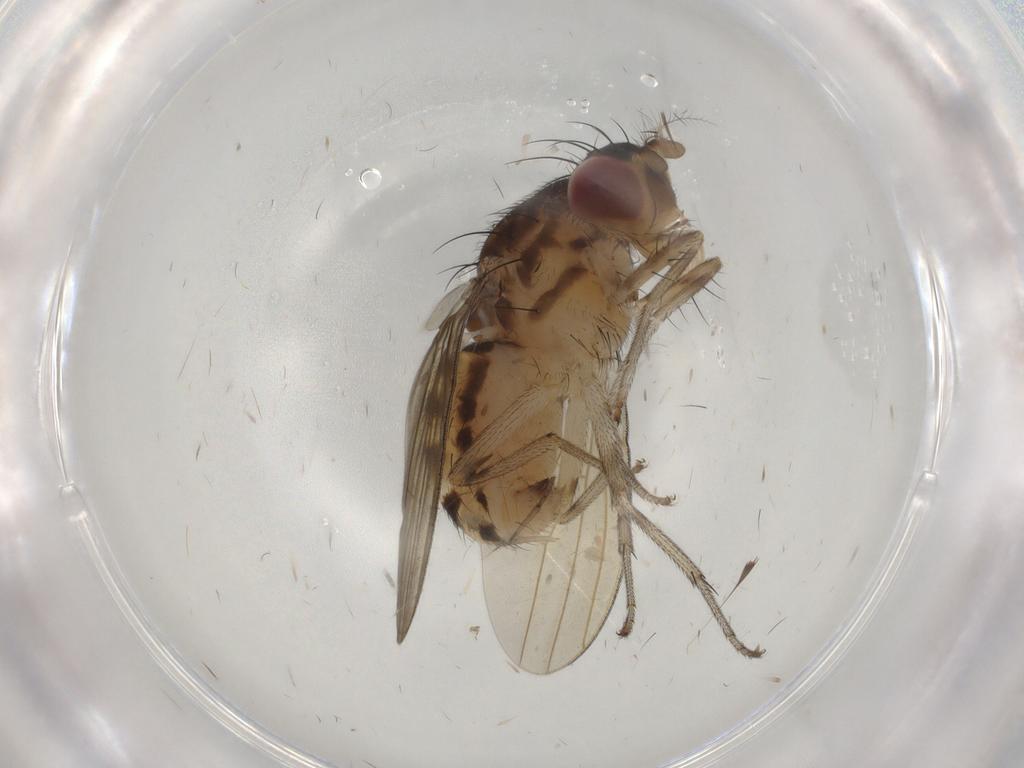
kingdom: Animalia
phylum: Arthropoda
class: Insecta
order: Diptera
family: Psychodidae
